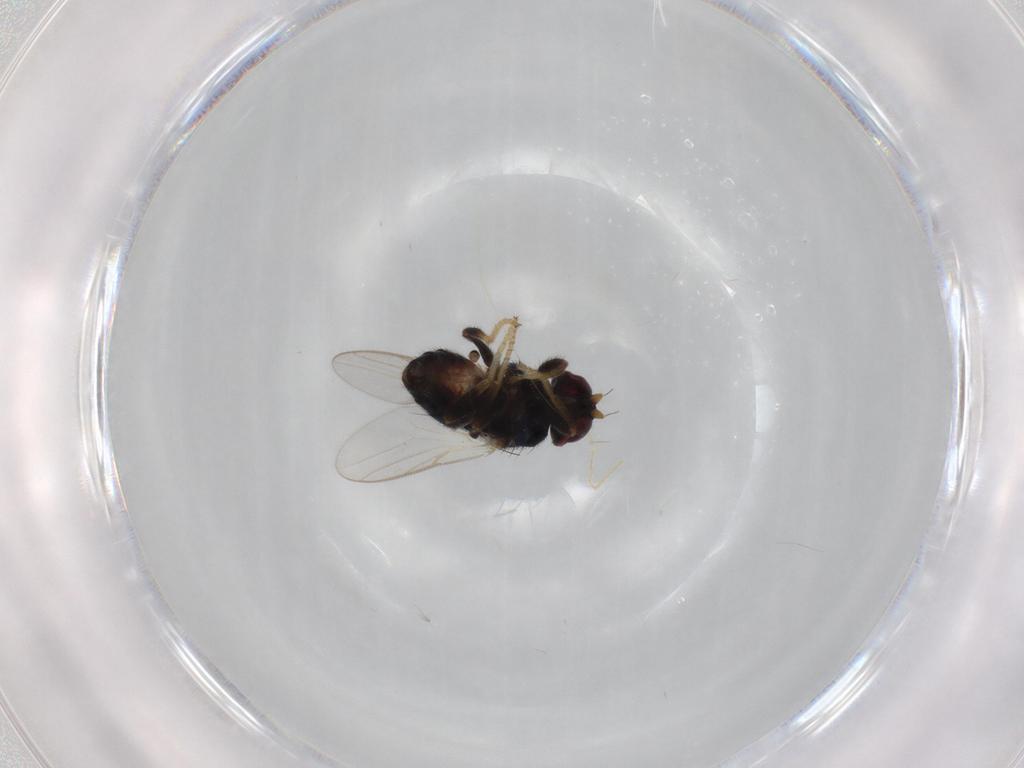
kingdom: Animalia
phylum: Arthropoda
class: Insecta
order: Diptera
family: Chloropidae
